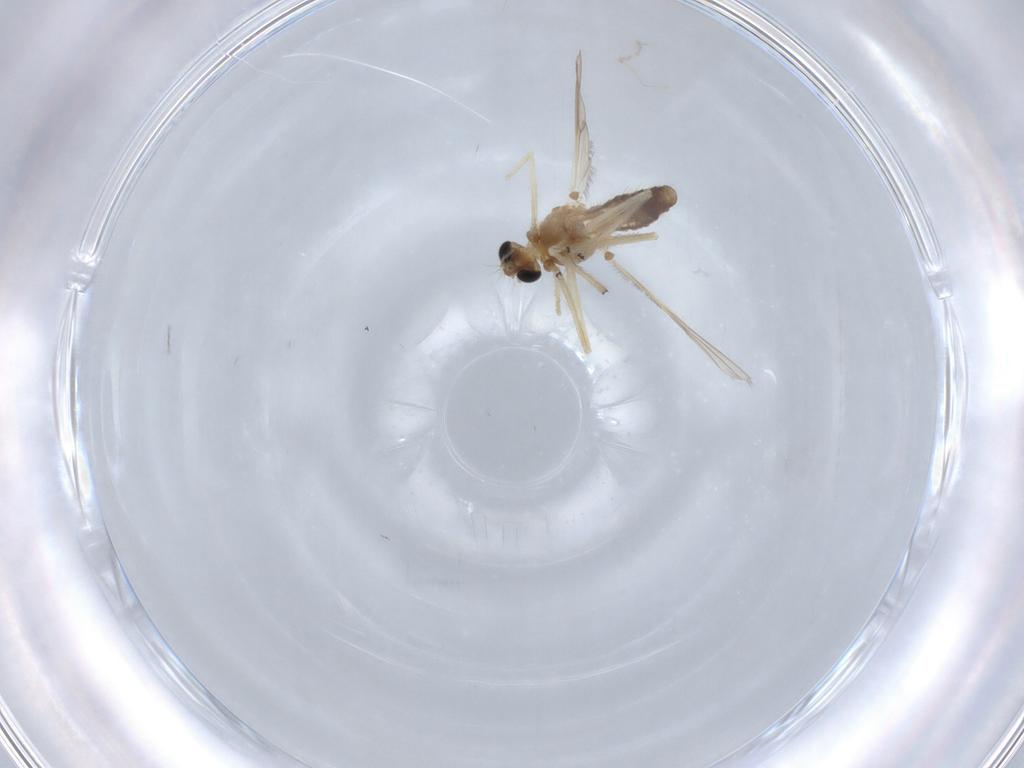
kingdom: Animalia
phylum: Arthropoda
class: Insecta
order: Diptera
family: Chironomidae
